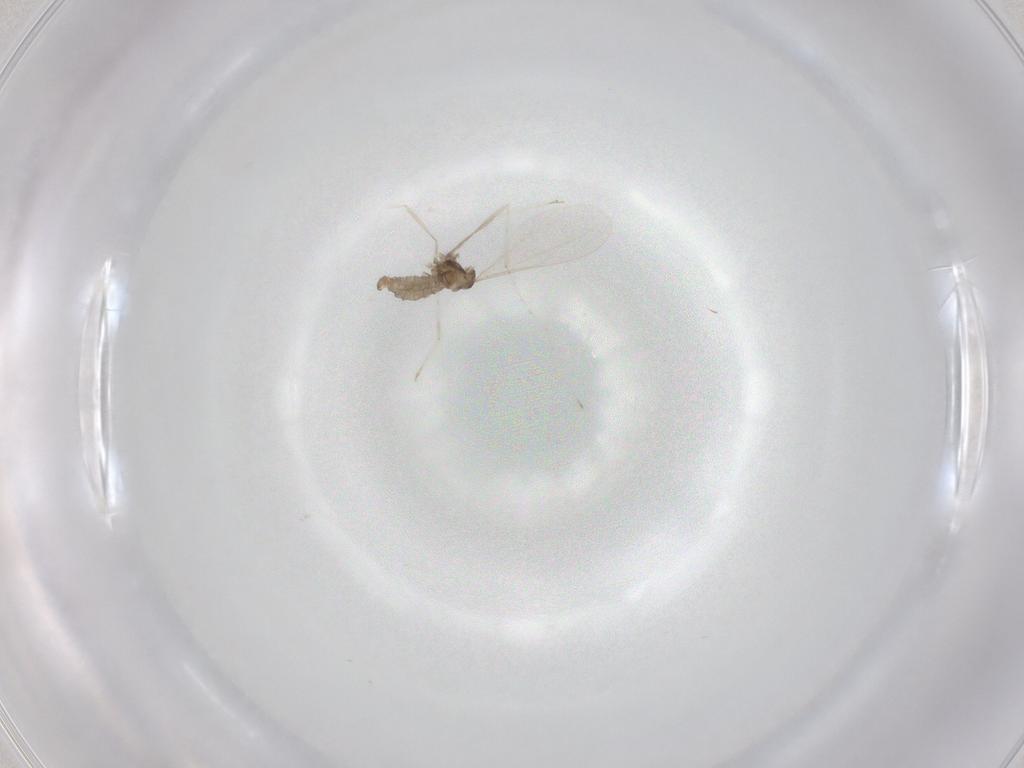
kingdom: Animalia
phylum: Arthropoda
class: Insecta
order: Diptera
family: Cecidomyiidae
